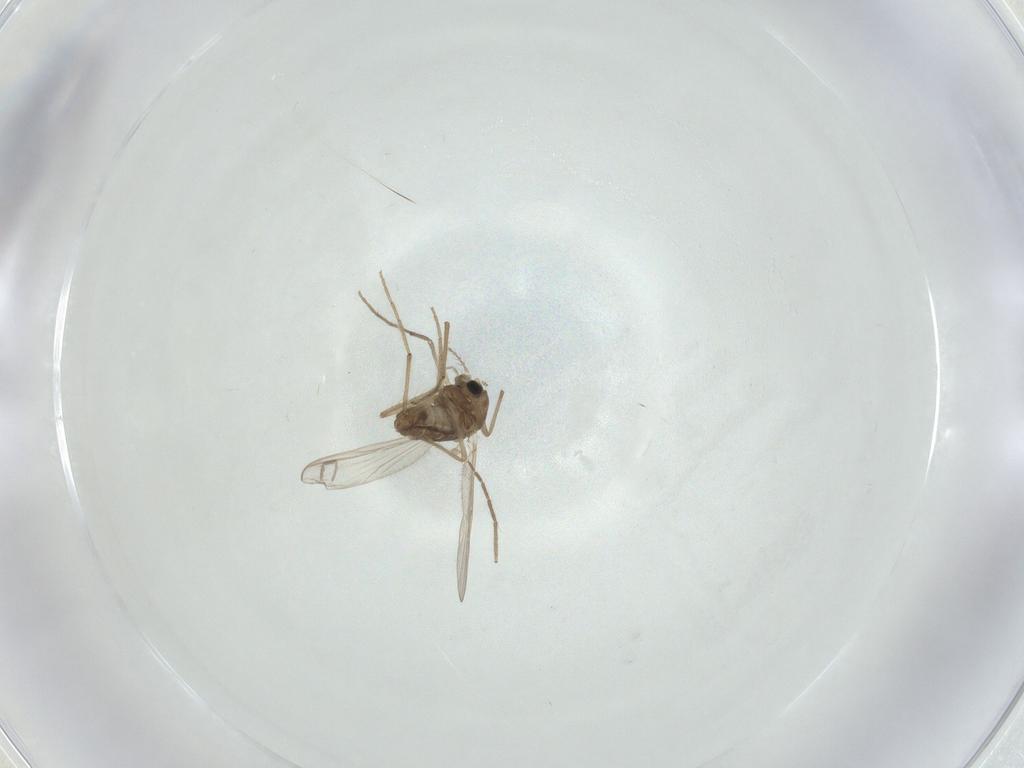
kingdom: Animalia
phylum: Arthropoda
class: Insecta
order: Diptera
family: Chironomidae
